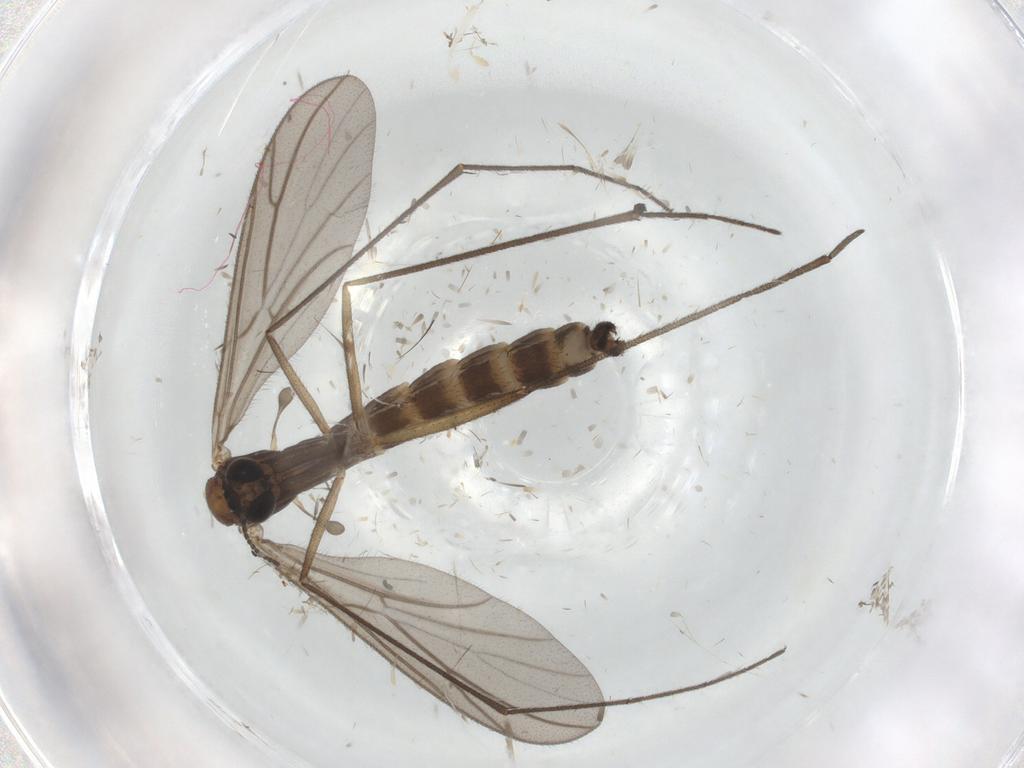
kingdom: Animalia
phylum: Arthropoda
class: Insecta
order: Diptera
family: Keroplatidae
